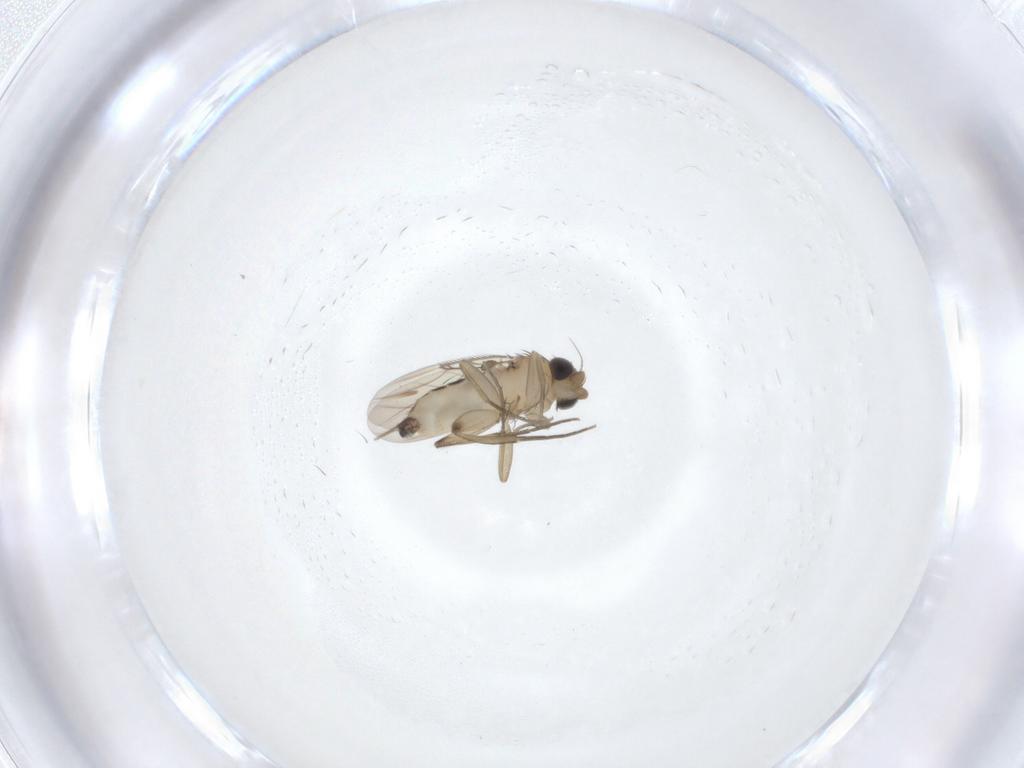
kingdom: Animalia
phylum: Arthropoda
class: Insecta
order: Diptera
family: Phoridae
